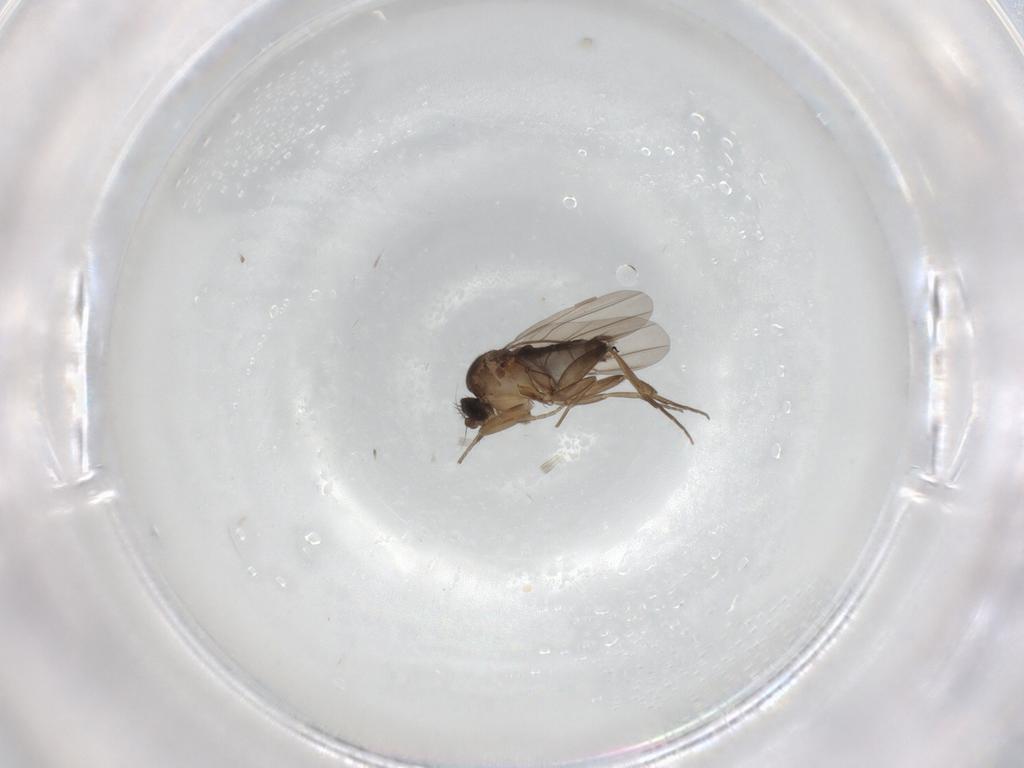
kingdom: Animalia
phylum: Arthropoda
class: Insecta
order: Diptera
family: Phoridae
